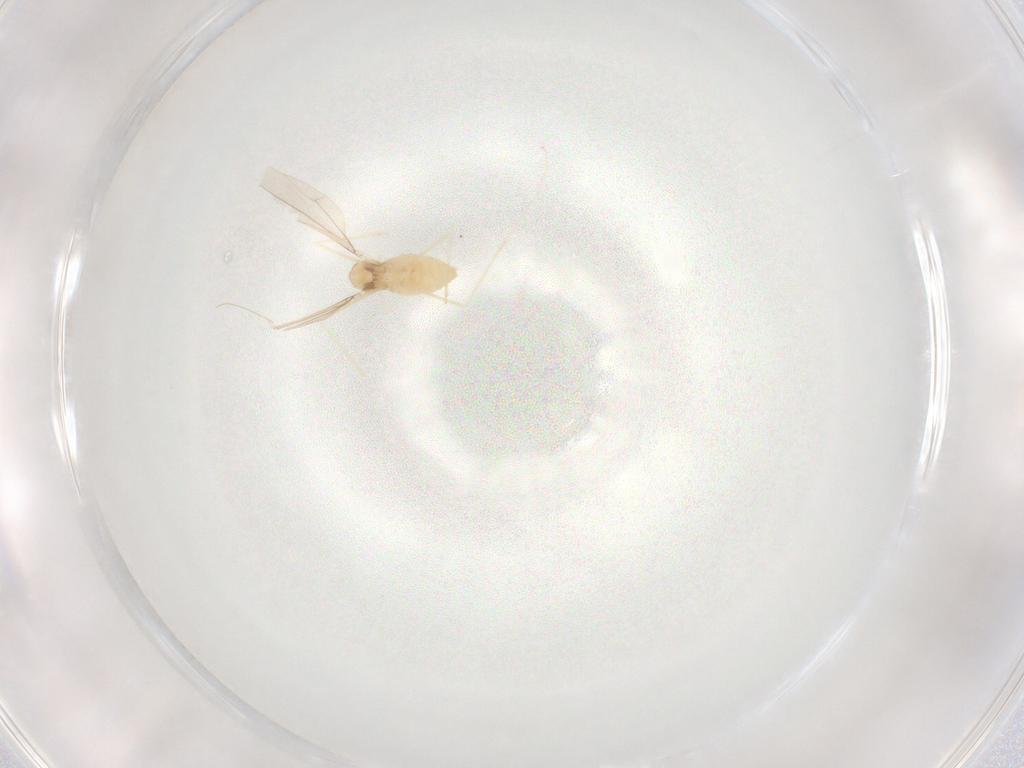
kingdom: Animalia
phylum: Arthropoda
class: Insecta
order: Diptera
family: Cecidomyiidae
